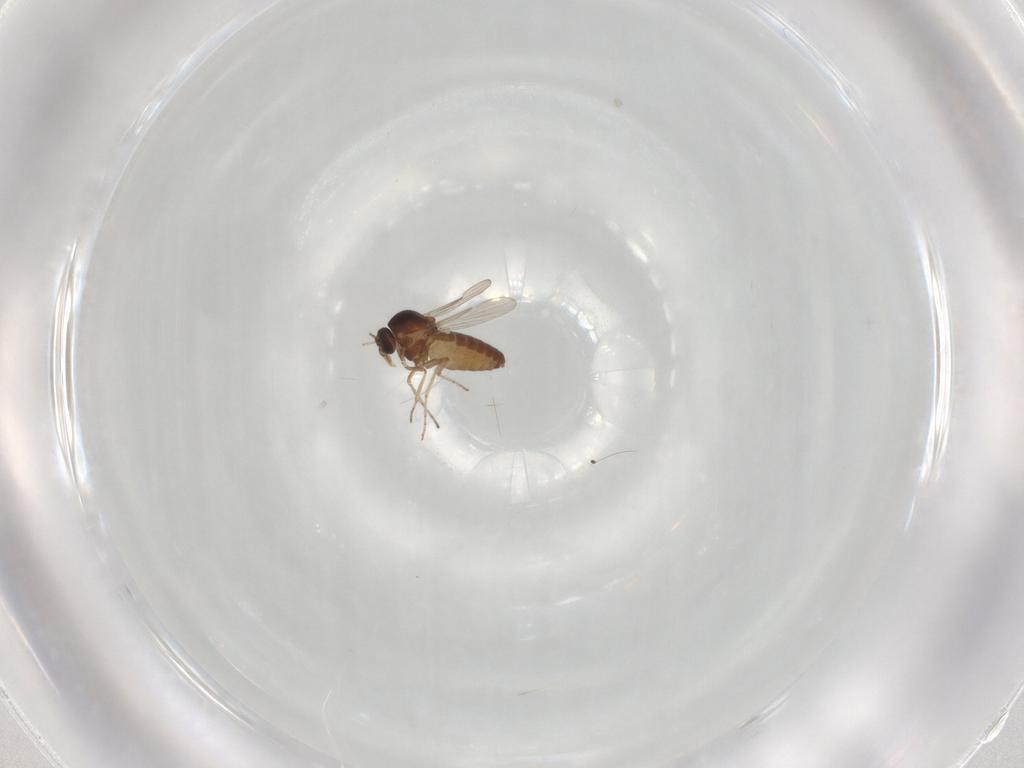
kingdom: Animalia
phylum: Arthropoda
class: Insecta
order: Diptera
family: Ceratopogonidae
